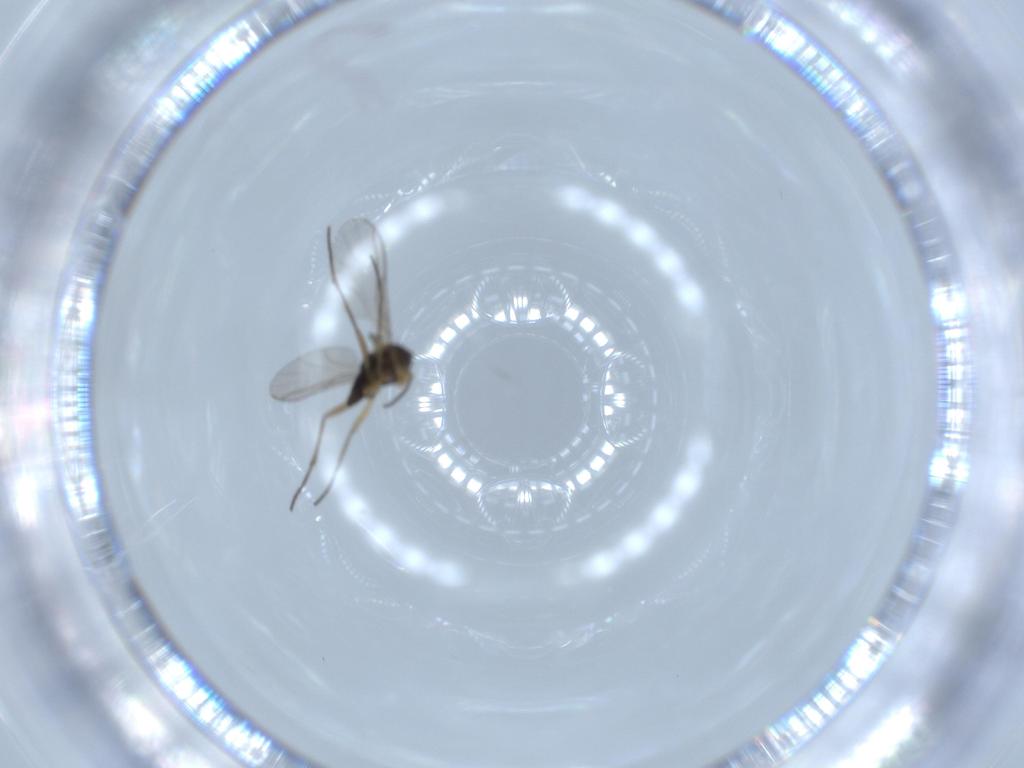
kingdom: Animalia
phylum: Arthropoda
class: Insecta
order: Diptera
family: Sciaridae
